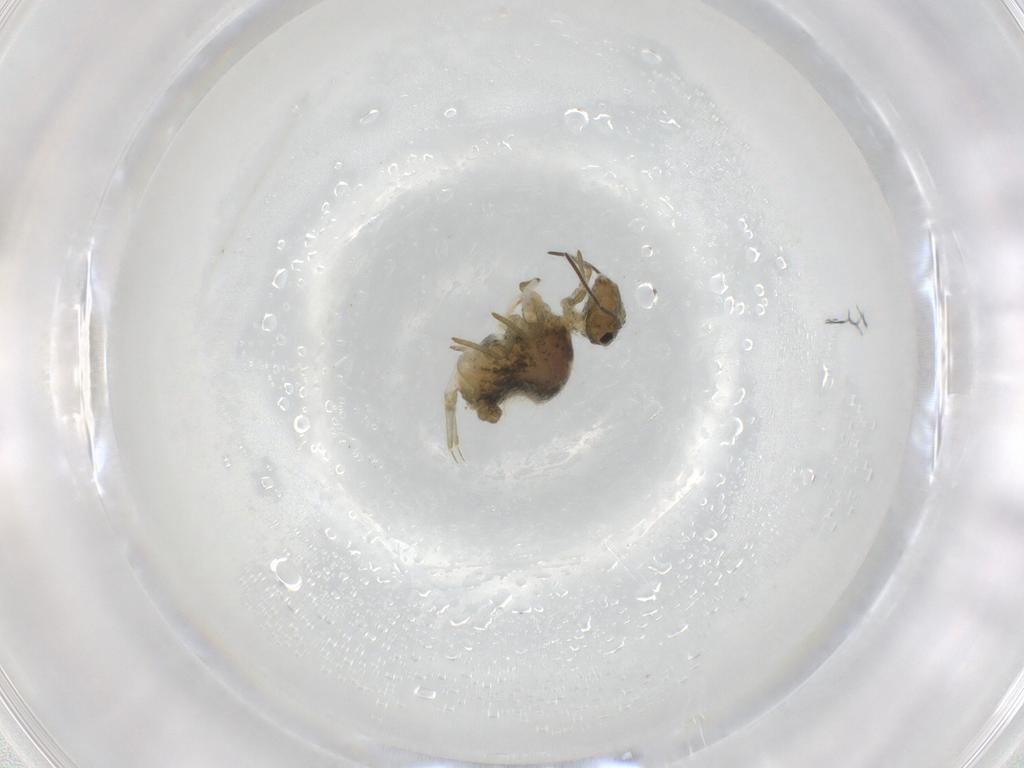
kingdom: Animalia
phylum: Arthropoda
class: Collembola
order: Symphypleona
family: Sminthuridae
